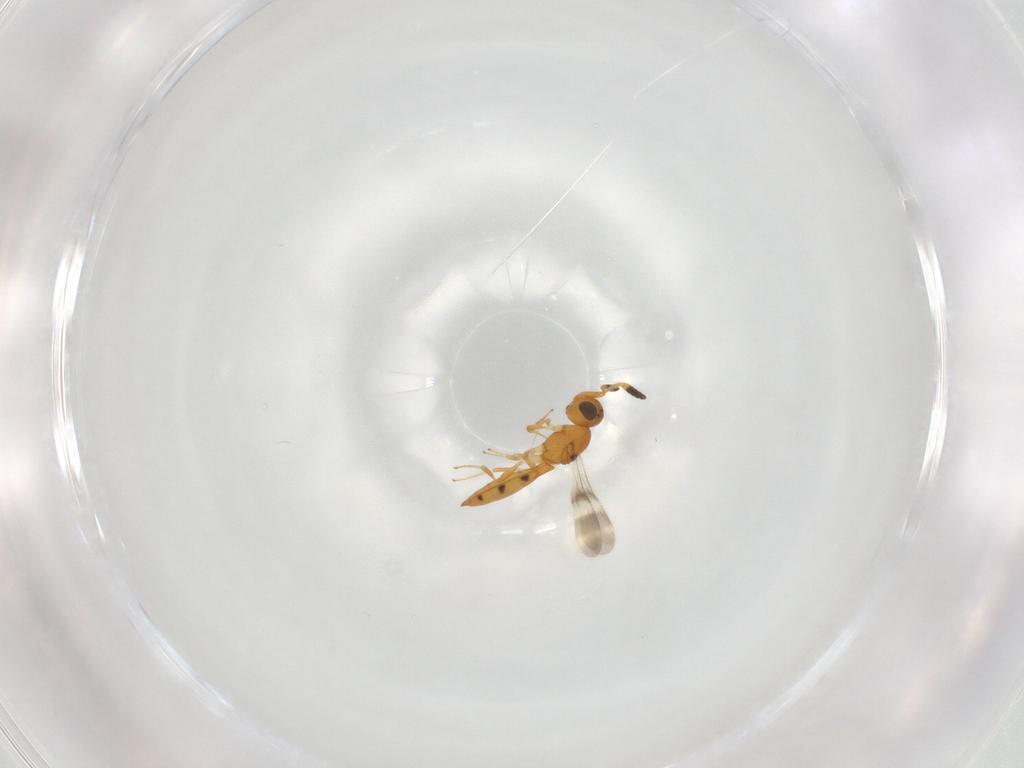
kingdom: Animalia
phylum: Arthropoda
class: Insecta
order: Hymenoptera
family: Scelionidae
